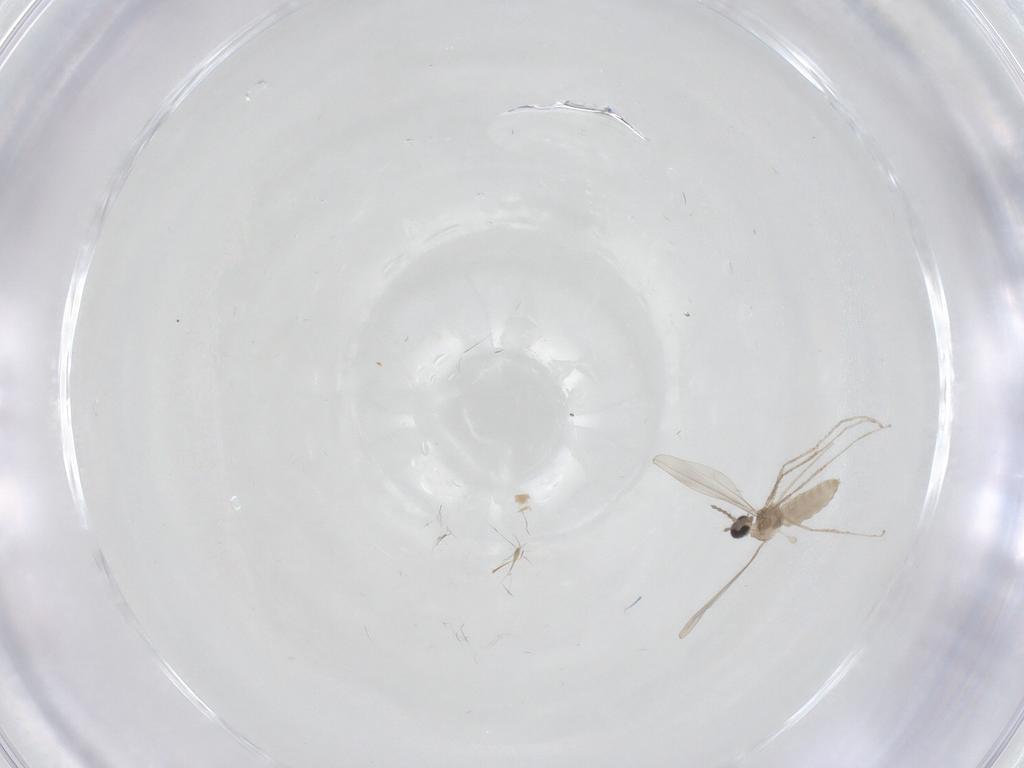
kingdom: Animalia
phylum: Arthropoda
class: Insecta
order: Diptera
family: Chironomidae
